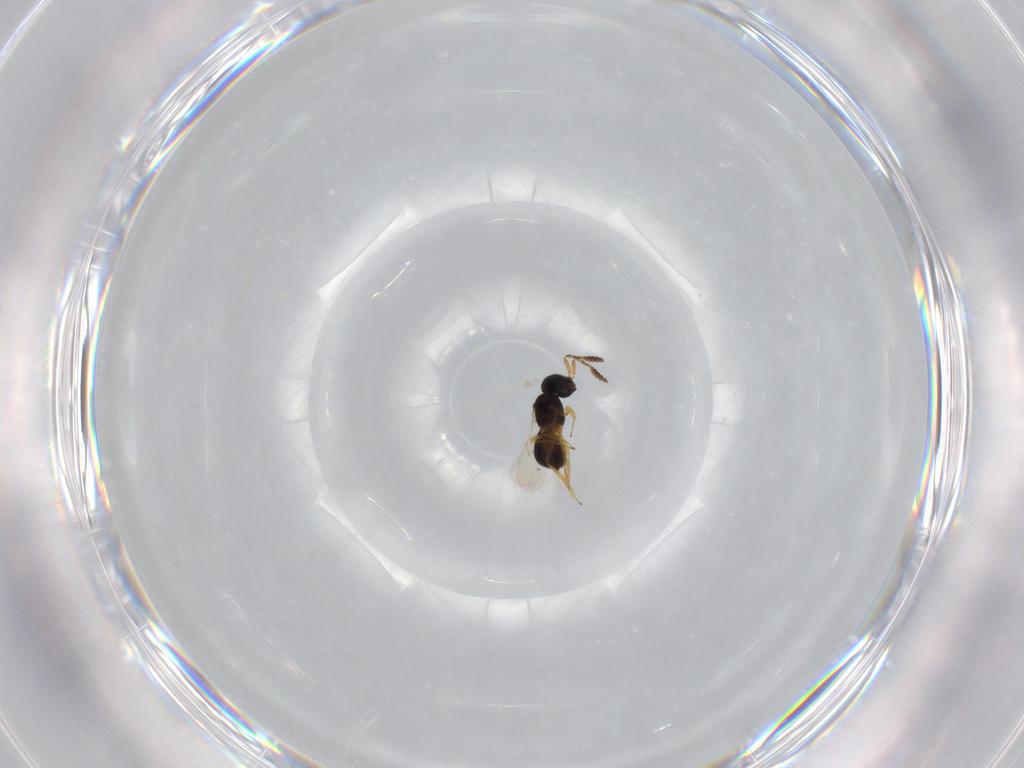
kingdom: Animalia
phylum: Arthropoda
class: Insecta
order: Hymenoptera
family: Scelionidae
